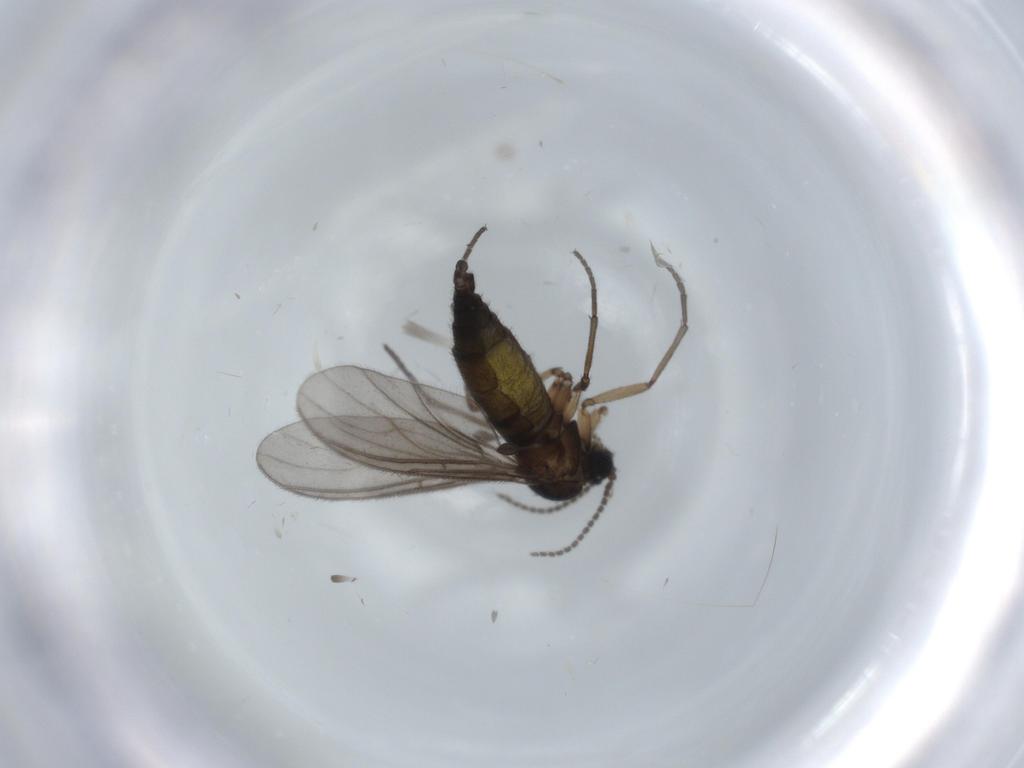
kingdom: Animalia
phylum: Arthropoda
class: Insecta
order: Diptera
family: Sciaridae
